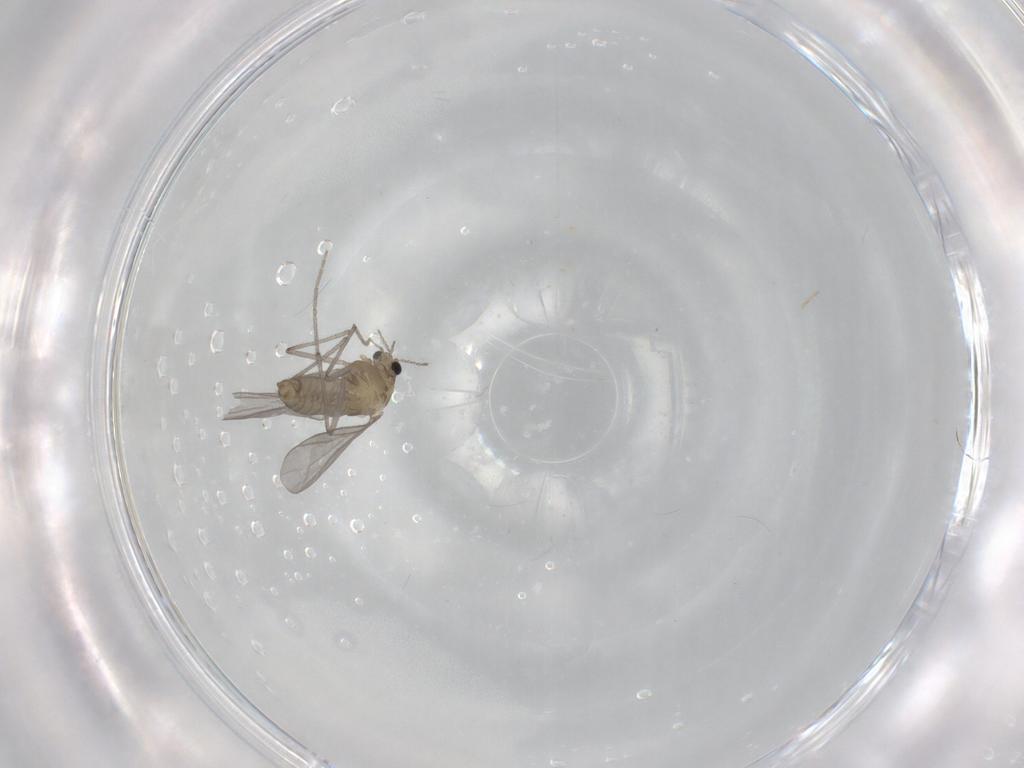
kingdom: Animalia
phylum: Arthropoda
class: Insecta
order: Diptera
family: Chironomidae
